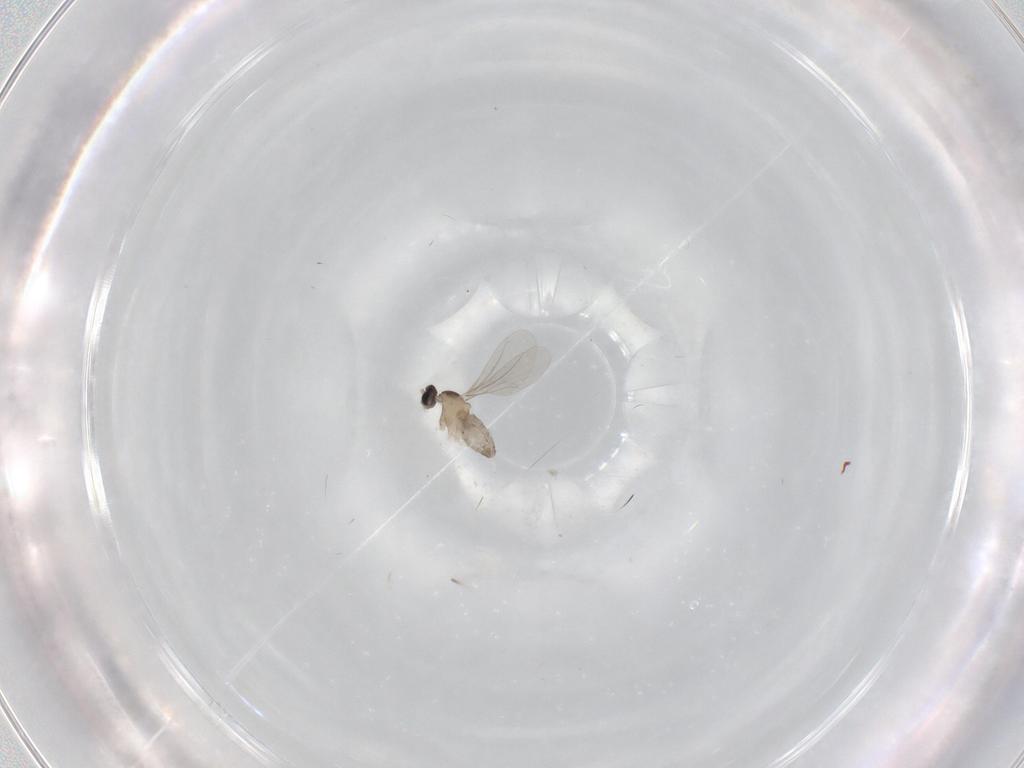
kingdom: Animalia
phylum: Arthropoda
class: Insecta
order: Diptera
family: Cecidomyiidae
